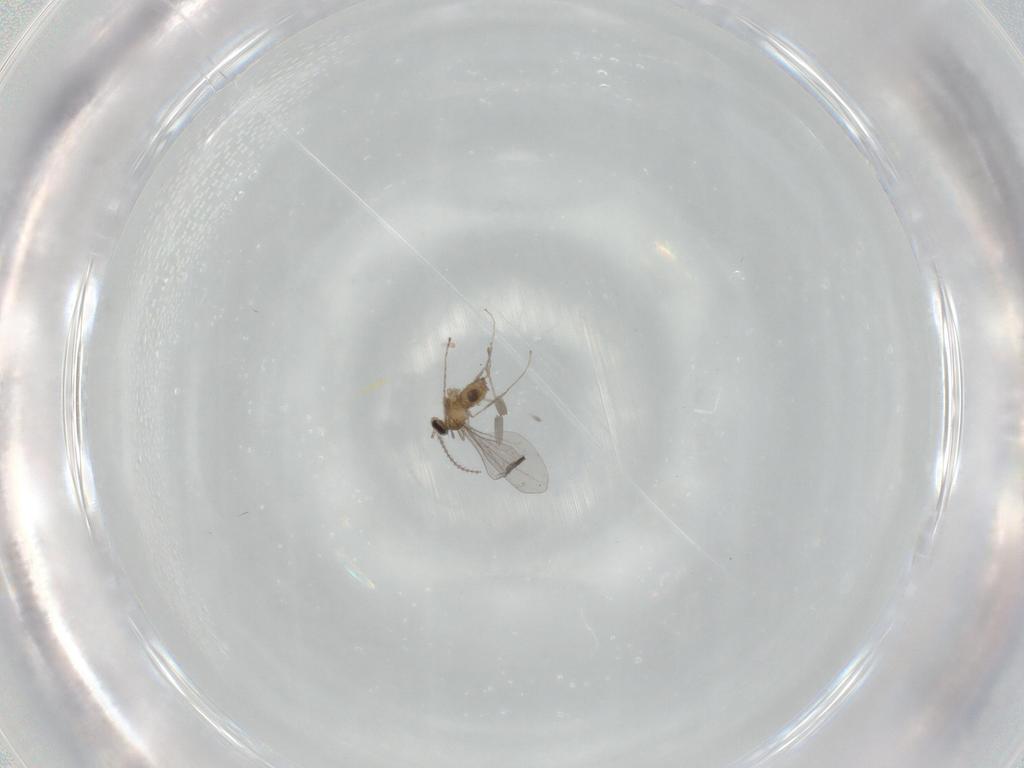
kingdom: Animalia
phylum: Arthropoda
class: Insecta
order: Diptera
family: Cecidomyiidae
